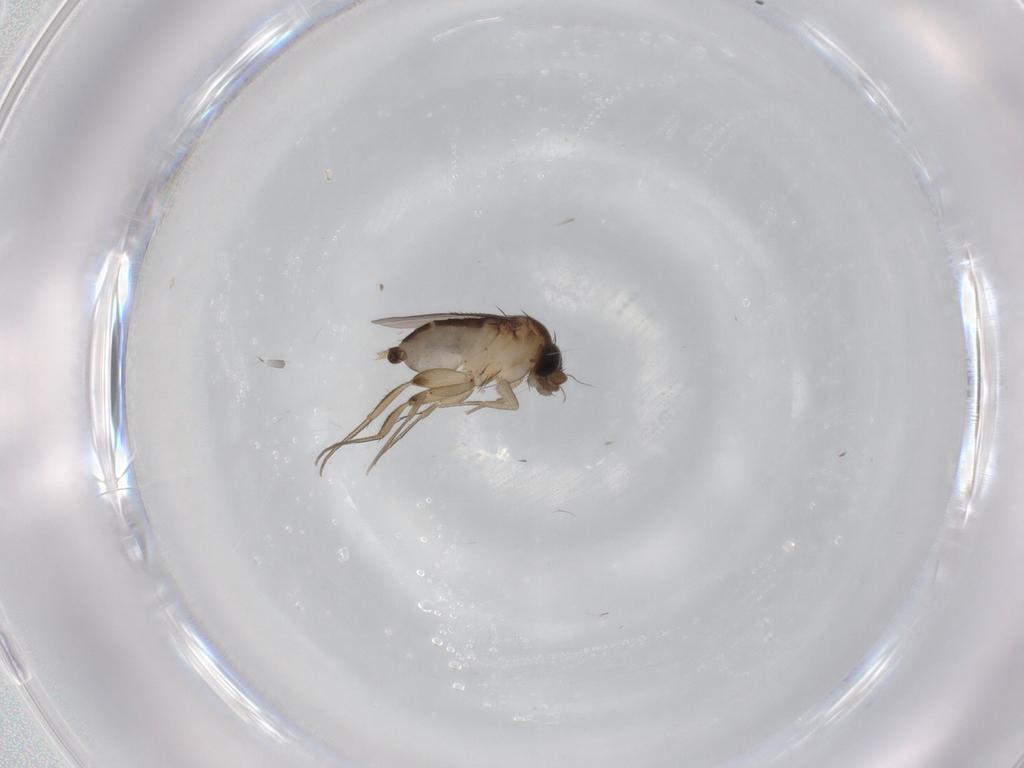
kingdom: Animalia
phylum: Arthropoda
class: Insecta
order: Diptera
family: Phoridae
